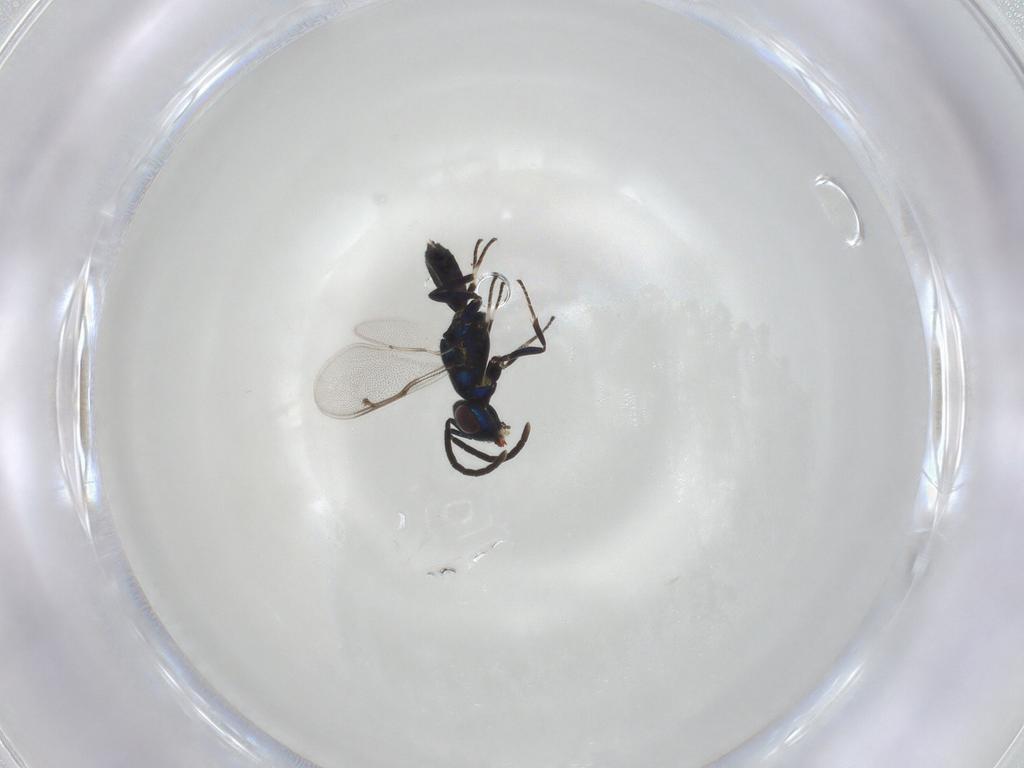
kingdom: Animalia
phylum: Arthropoda
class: Insecta
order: Hymenoptera
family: Eupelmidae
